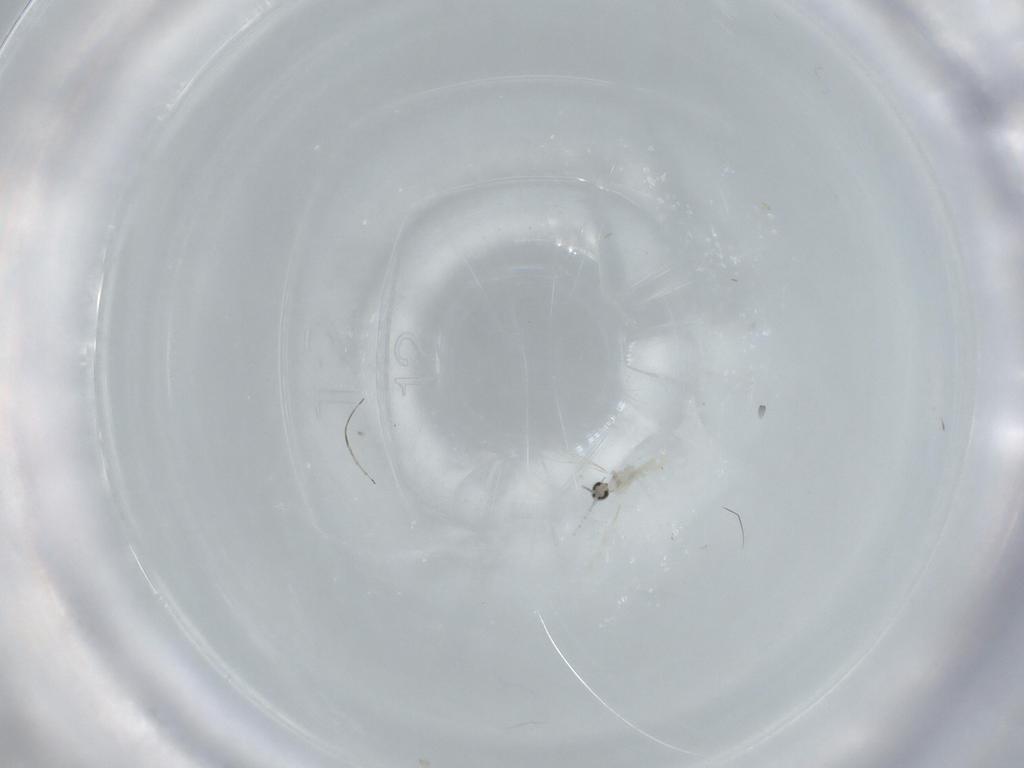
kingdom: Animalia
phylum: Arthropoda
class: Insecta
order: Diptera
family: Cecidomyiidae
